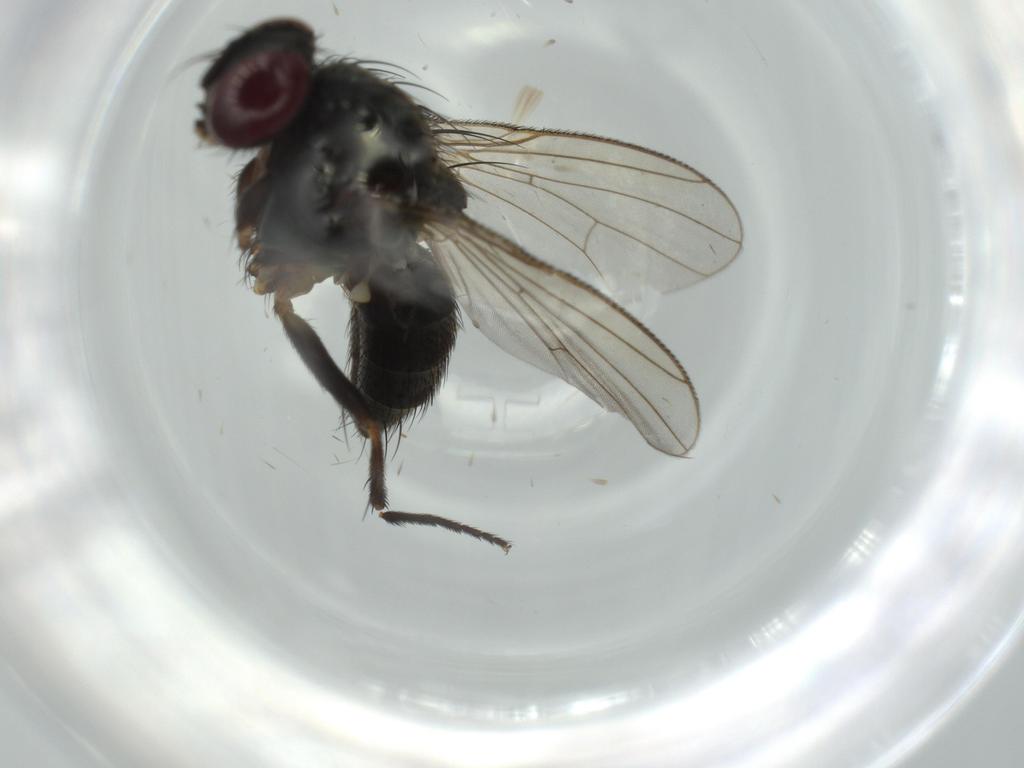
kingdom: Animalia
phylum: Arthropoda
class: Insecta
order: Diptera
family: Muscidae
